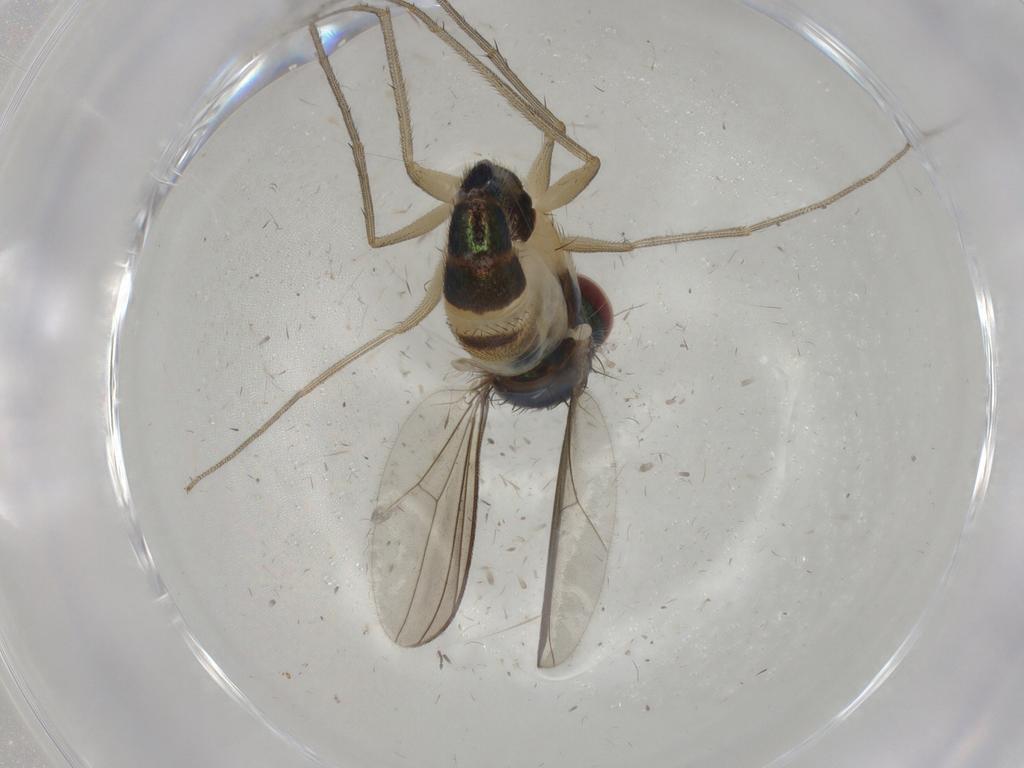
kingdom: Animalia
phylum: Arthropoda
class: Insecta
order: Diptera
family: Dolichopodidae
